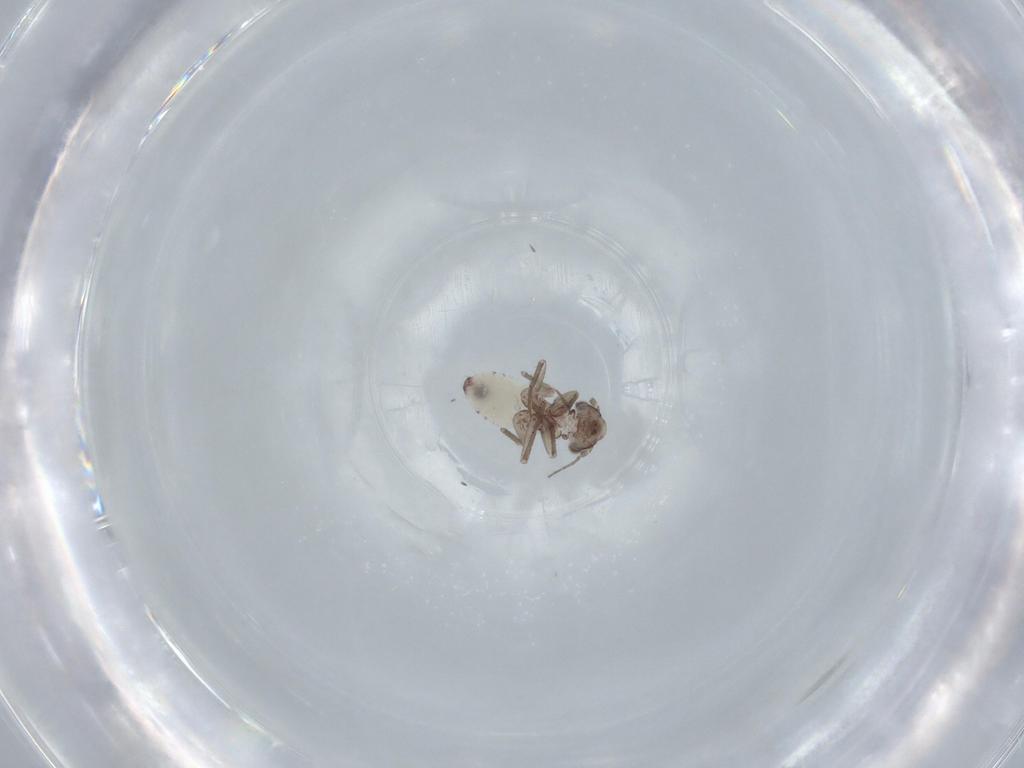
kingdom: Animalia
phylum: Arthropoda
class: Insecta
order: Psocodea
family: Lepidopsocidae
